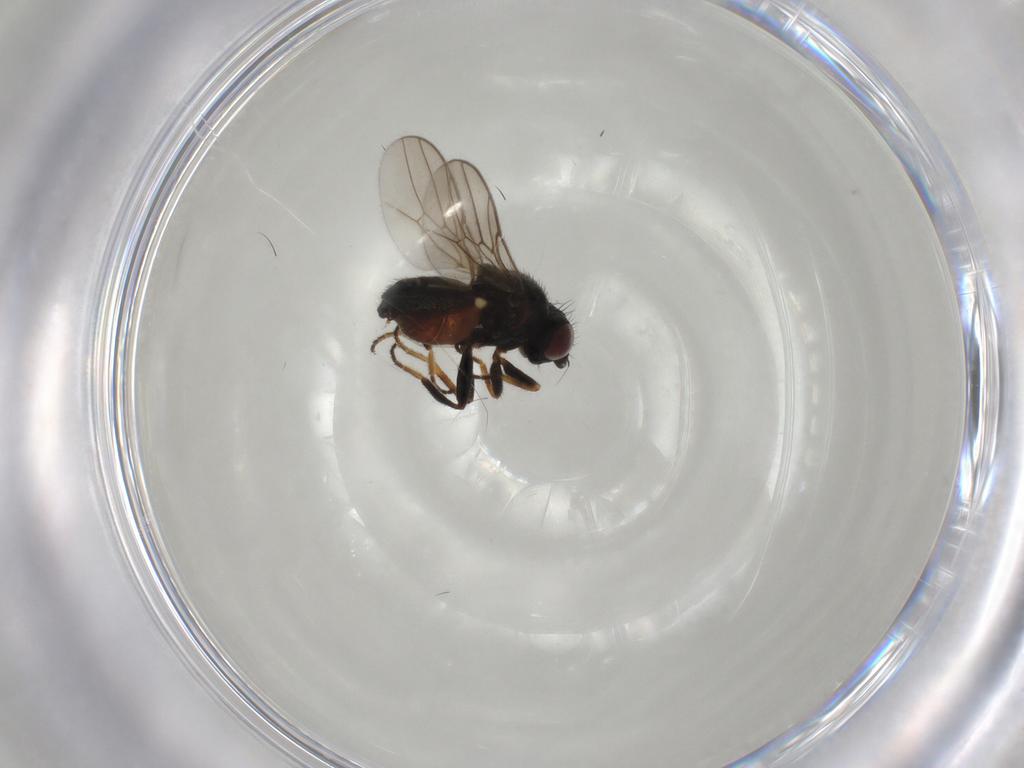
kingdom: Animalia
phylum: Arthropoda
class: Insecta
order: Diptera
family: Chloropidae
